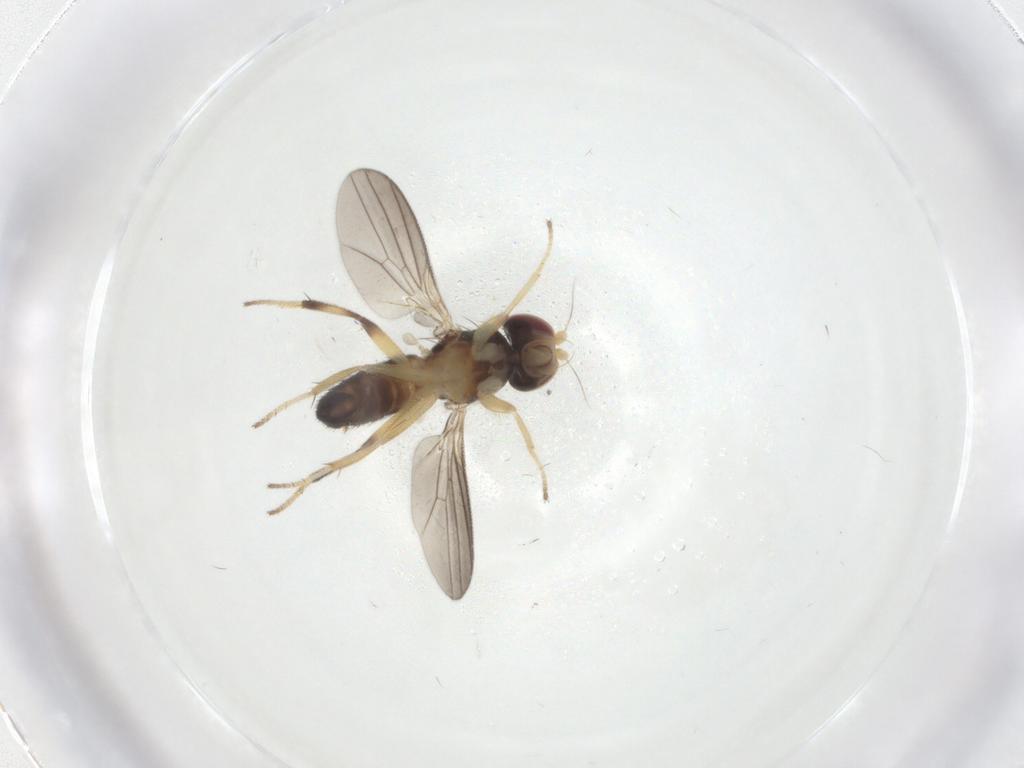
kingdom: Animalia
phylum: Arthropoda
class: Insecta
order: Diptera
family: Clusiidae
